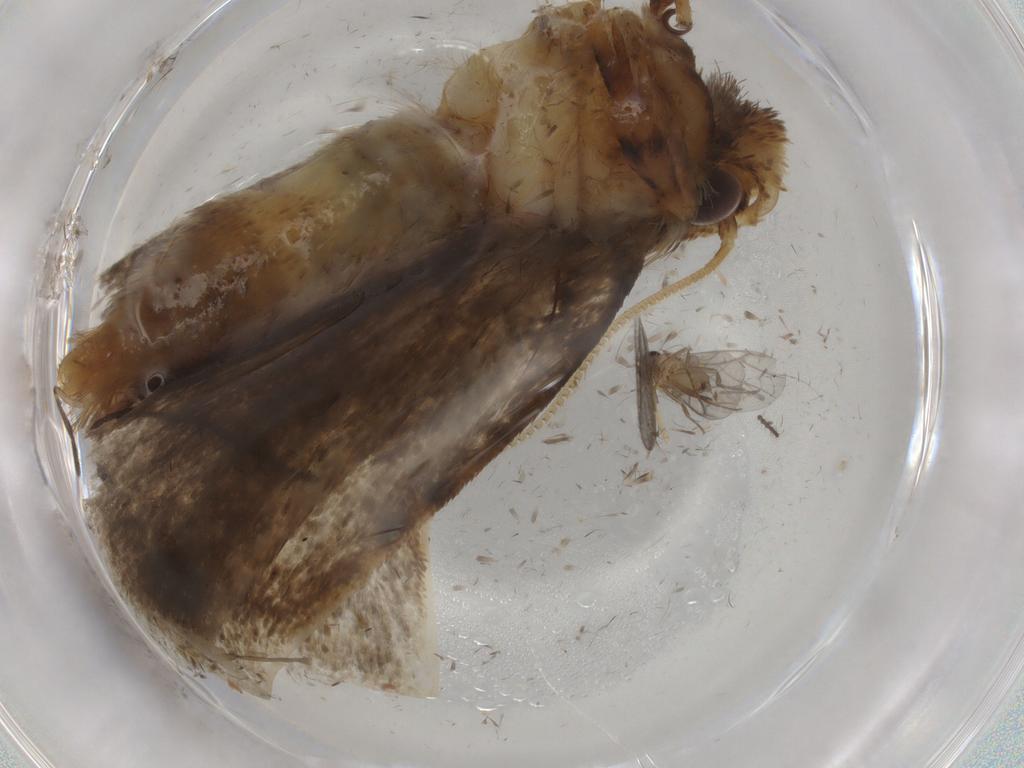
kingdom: Animalia
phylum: Arthropoda
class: Insecta
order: Lepidoptera
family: Tineidae
